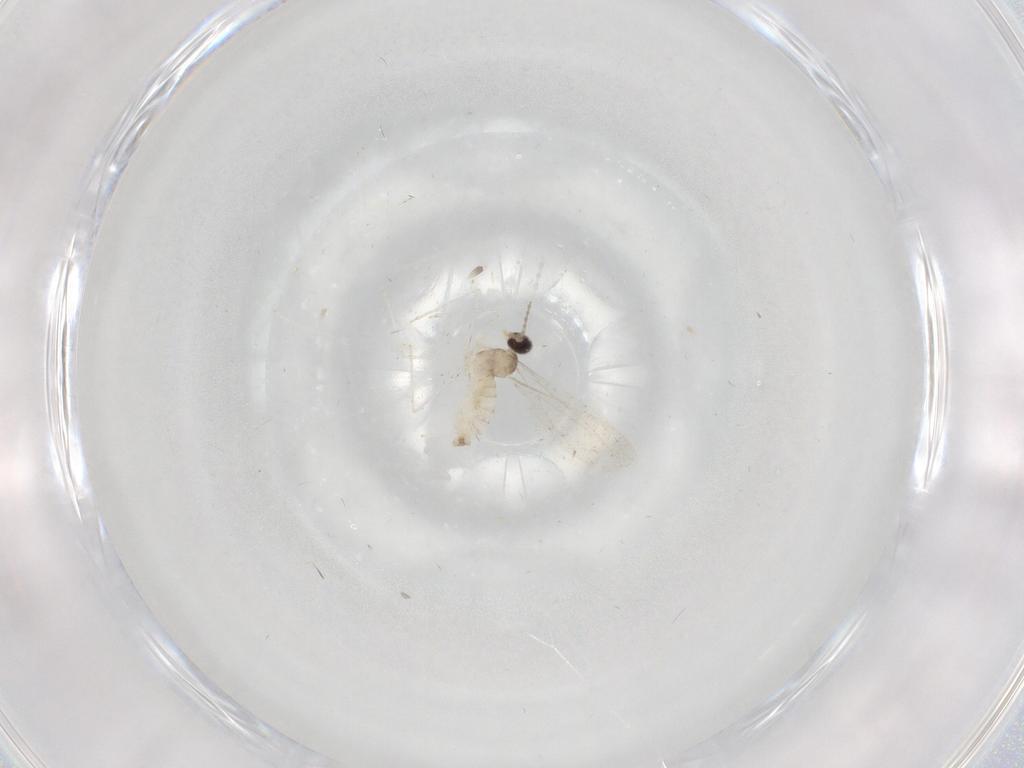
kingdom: Animalia
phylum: Arthropoda
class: Insecta
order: Diptera
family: Cecidomyiidae
